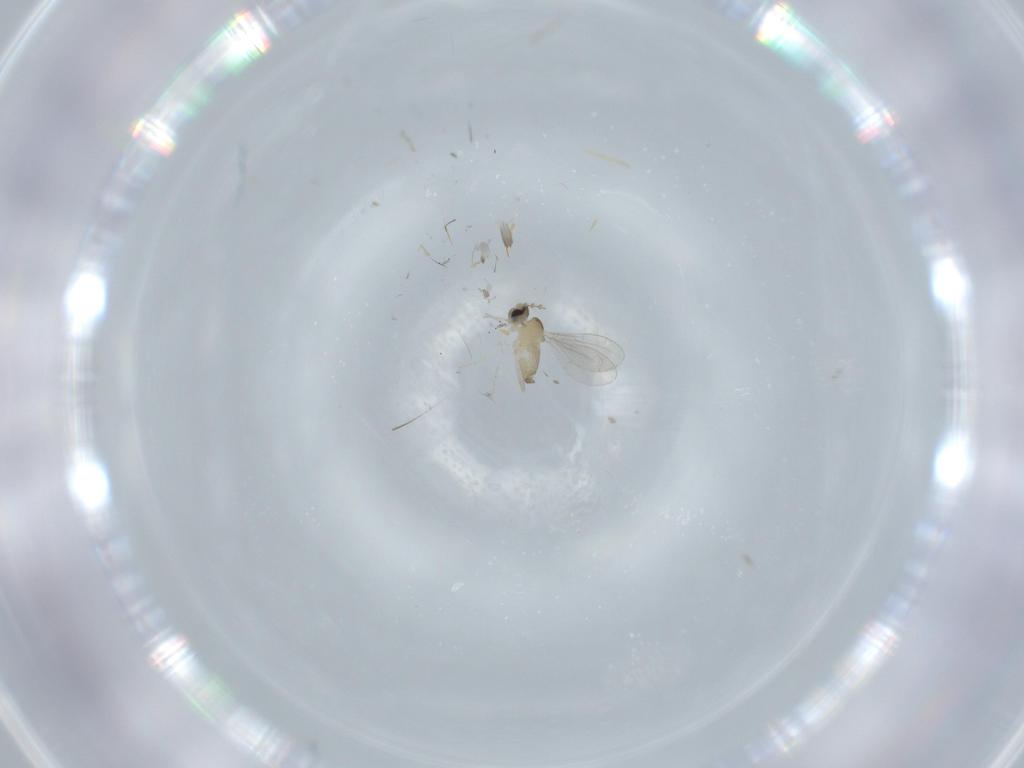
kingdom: Animalia
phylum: Arthropoda
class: Insecta
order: Diptera
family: Cecidomyiidae
